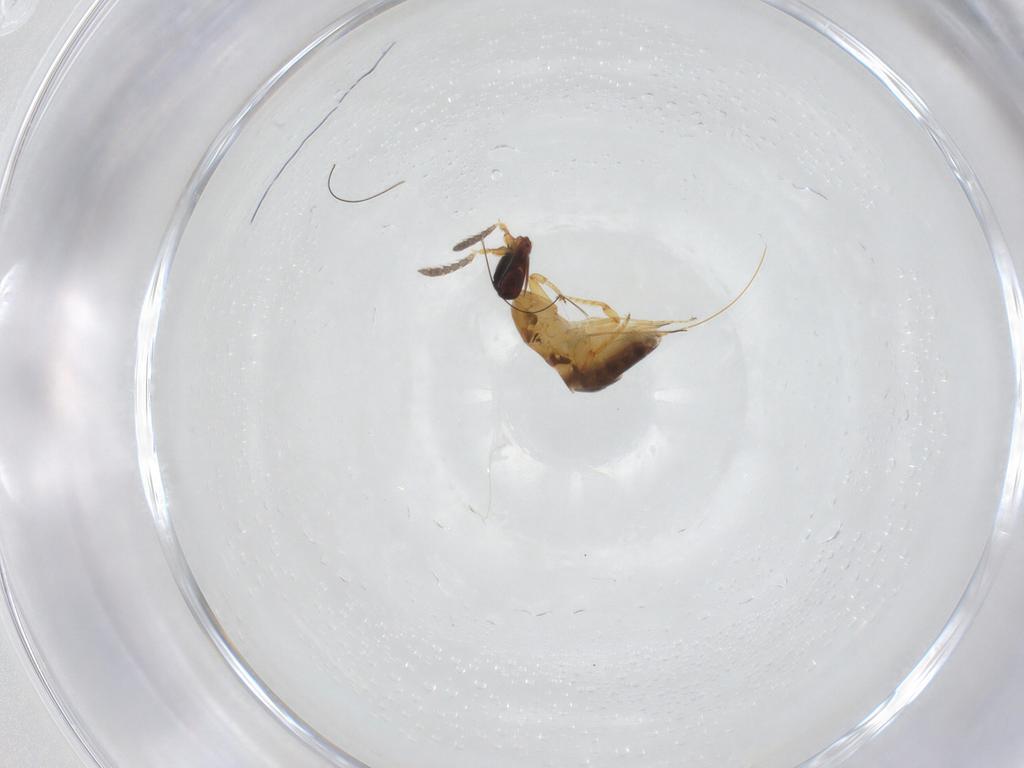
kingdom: Animalia
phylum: Arthropoda
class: Insecta
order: Hymenoptera
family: Agaonidae
